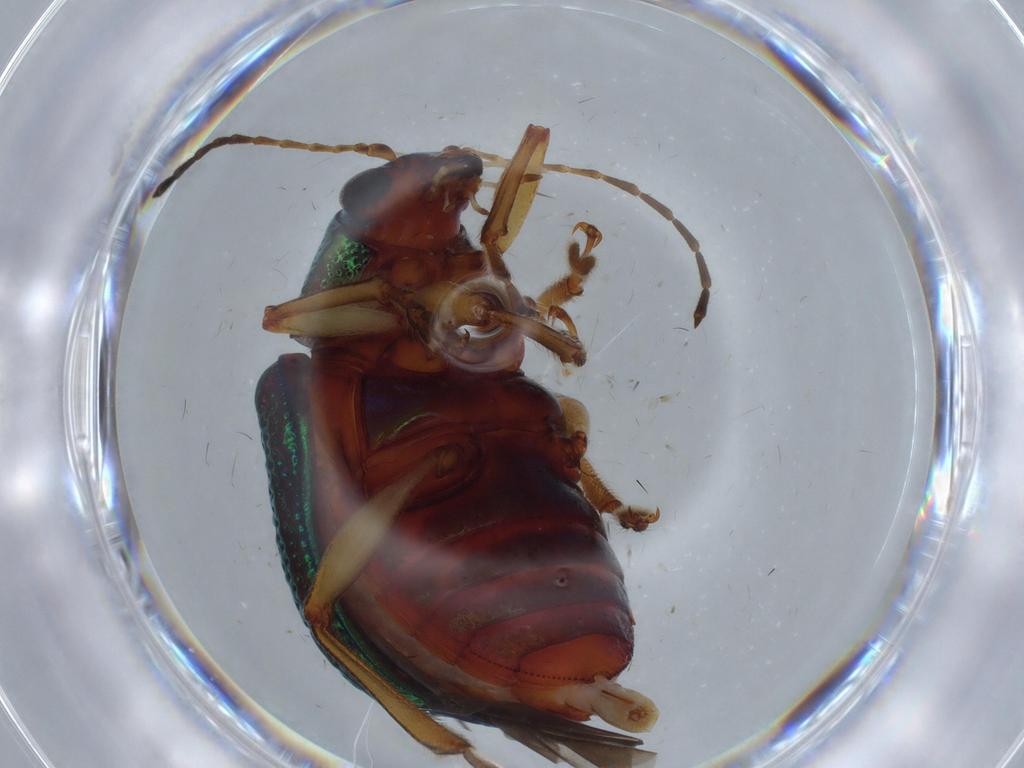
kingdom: Animalia
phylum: Arthropoda
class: Insecta
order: Coleoptera
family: Chrysomelidae
